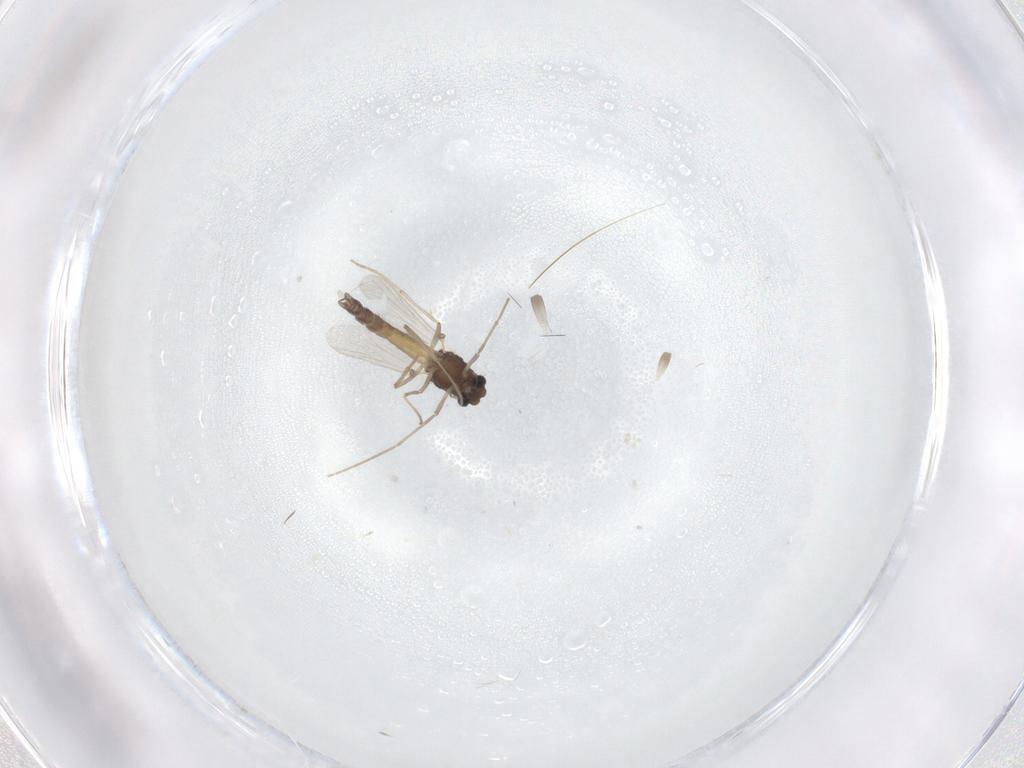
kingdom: Animalia
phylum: Arthropoda
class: Insecta
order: Diptera
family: Chironomidae
